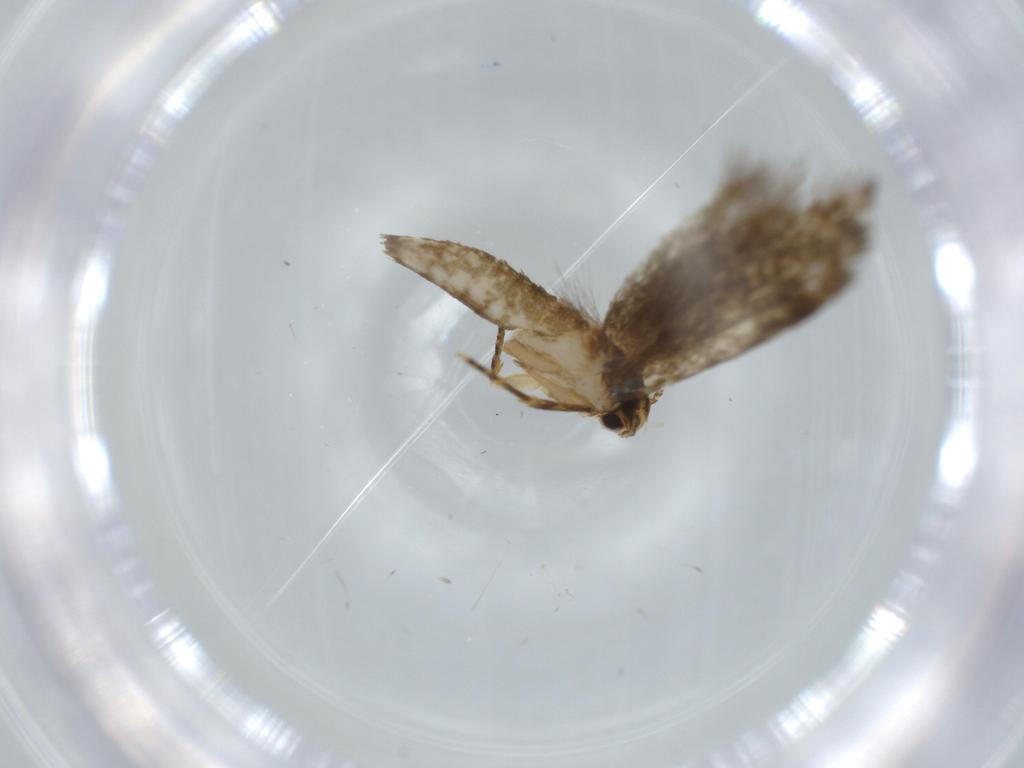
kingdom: Animalia
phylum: Arthropoda
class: Insecta
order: Lepidoptera
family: Tineidae
